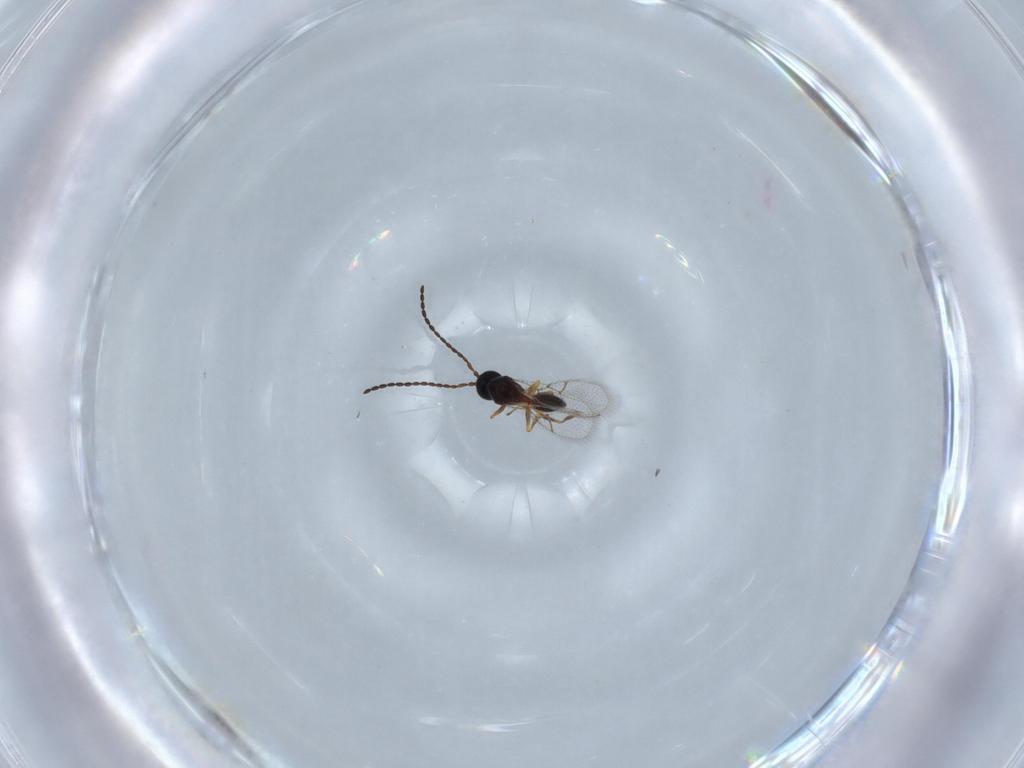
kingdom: Animalia
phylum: Arthropoda
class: Insecta
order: Hymenoptera
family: Figitidae
